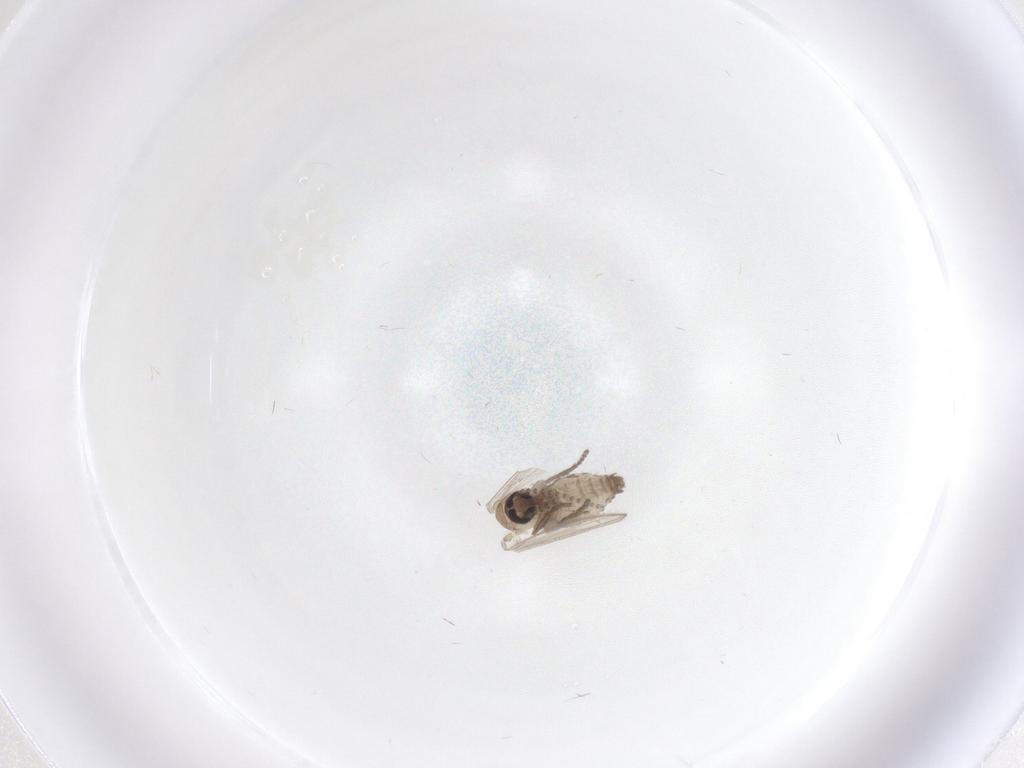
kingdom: Animalia
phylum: Arthropoda
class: Insecta
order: Diptera
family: Psychodidae
